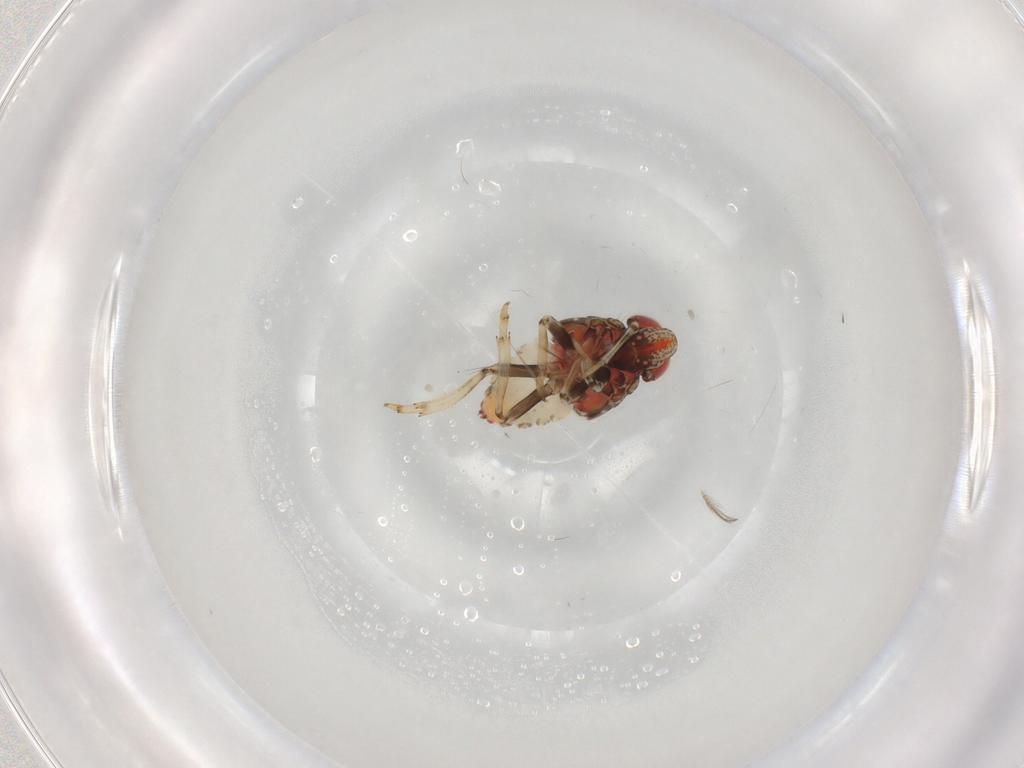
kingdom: Animalia
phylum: Arthropoda
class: Insecta
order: Hemiptera
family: Issidae
